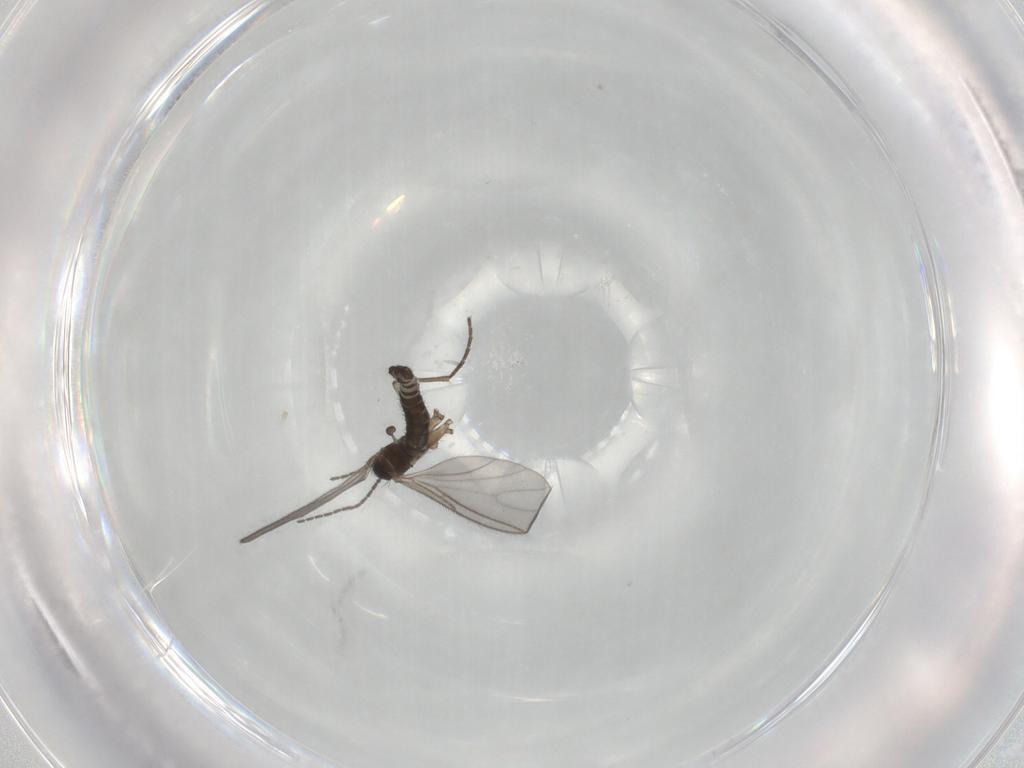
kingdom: Animalia
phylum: Arthropoda
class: Insecta
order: Diptera
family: Sciaridae
